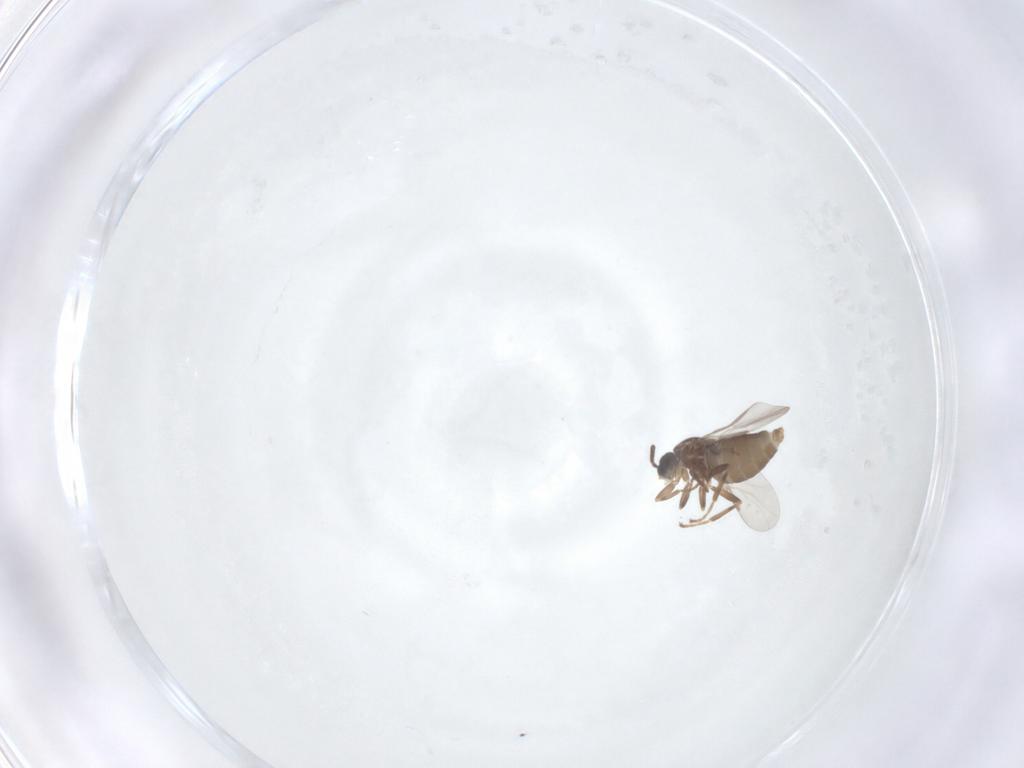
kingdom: Animalia
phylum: Arthropoda
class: Insecta
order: Diptera
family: Scatopsidae
